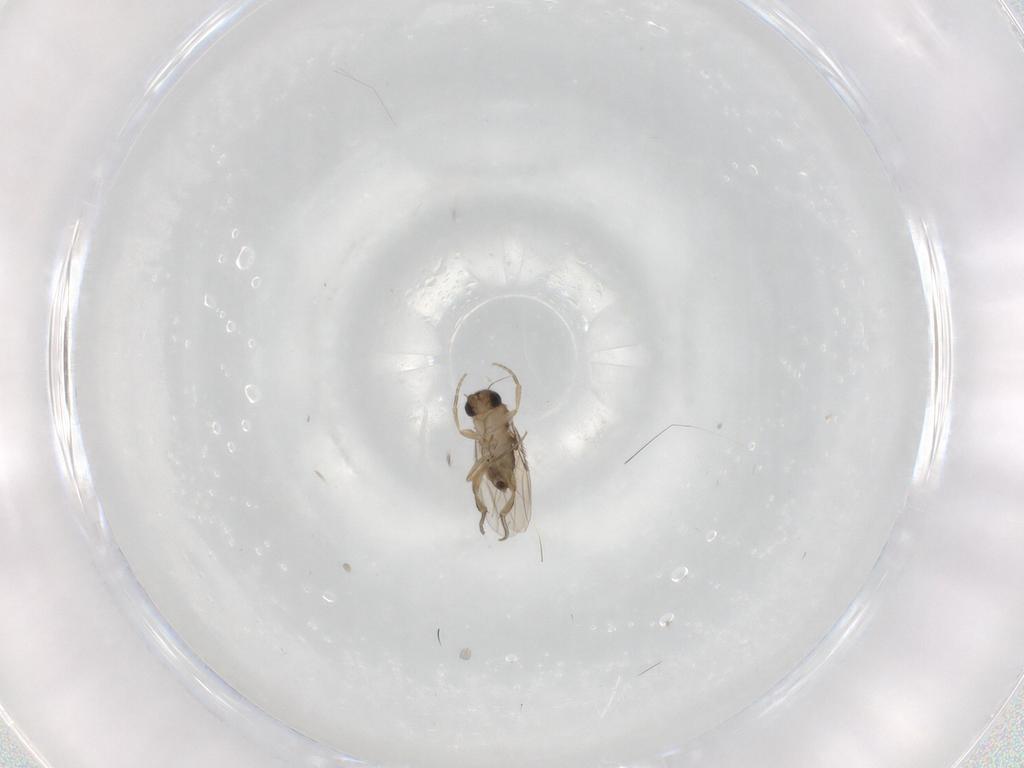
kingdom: Animalia
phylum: Arthropoda
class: Insecta
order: Diptera
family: Phoridae
